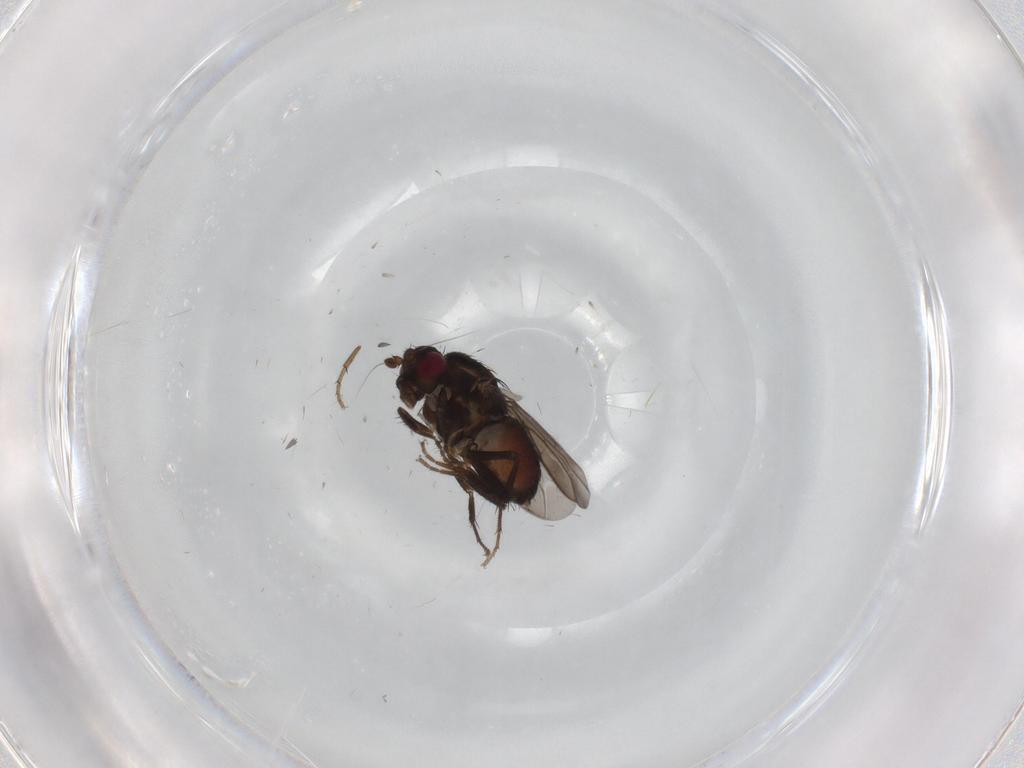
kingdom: Animalia
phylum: Arthropoda
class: Insecta
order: Diptera
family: Sphaeroceridae
